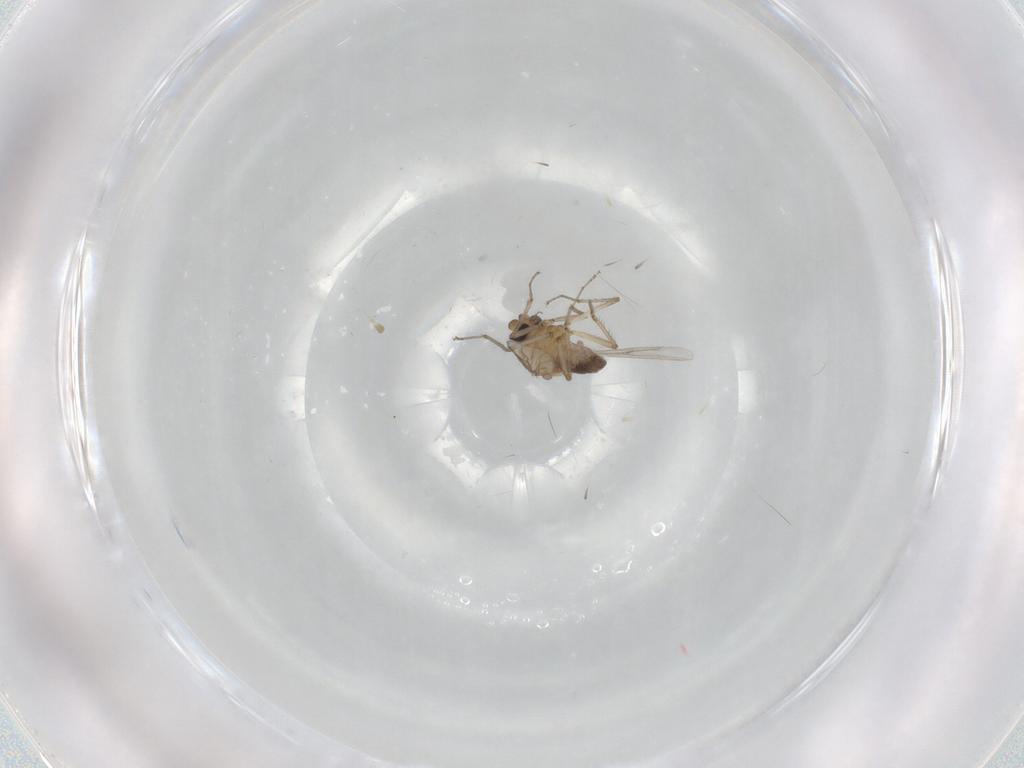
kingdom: Animalia
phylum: Arthropoda
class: Insecta
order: Diptera
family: Ceratopogonidae
